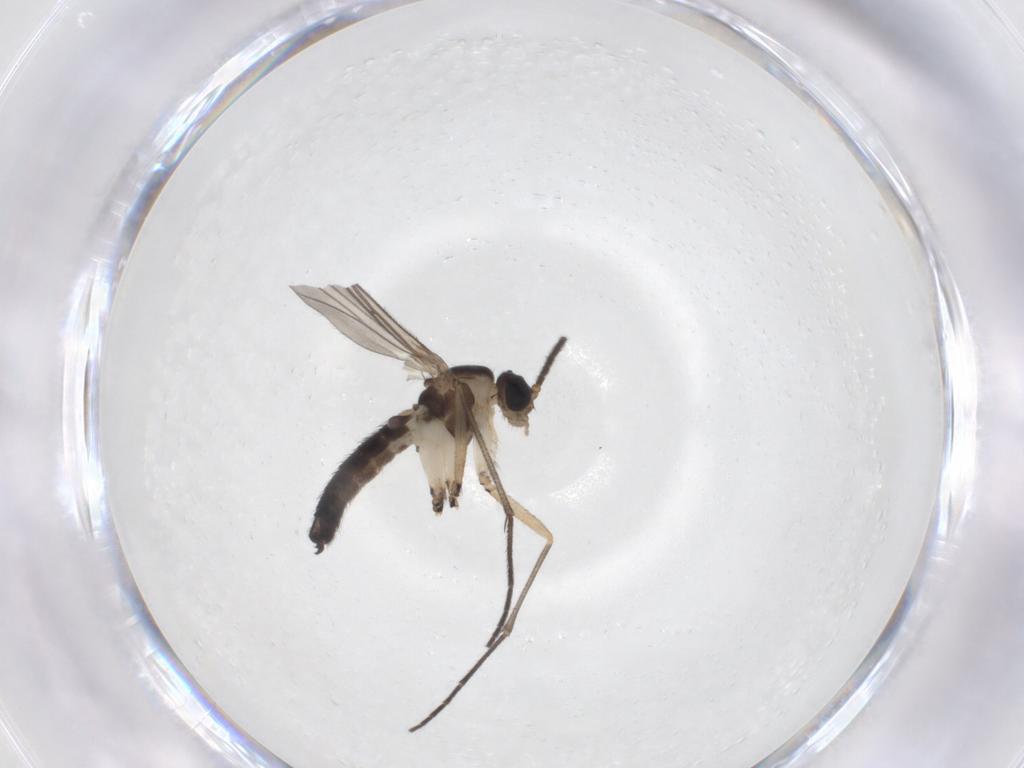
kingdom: Animalia
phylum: Arthropoda
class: Insecta
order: Diptera
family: Sciaridae
